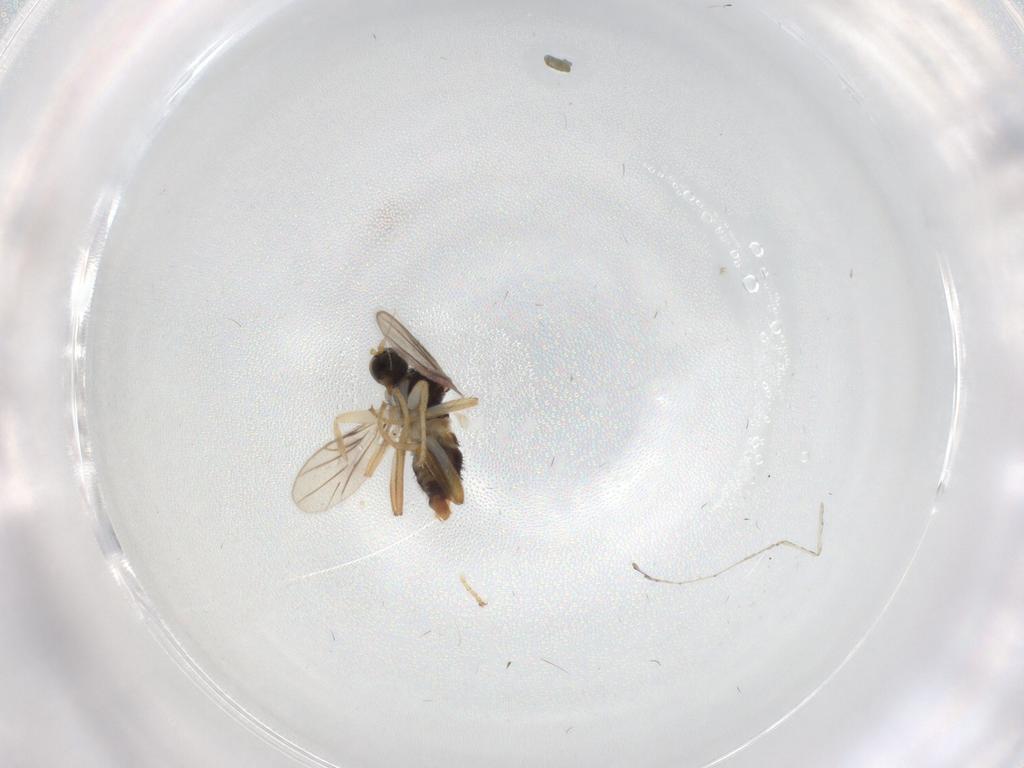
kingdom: Animalia
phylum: Arthropoda
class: Insecta
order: Diptera
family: Hybotidae
